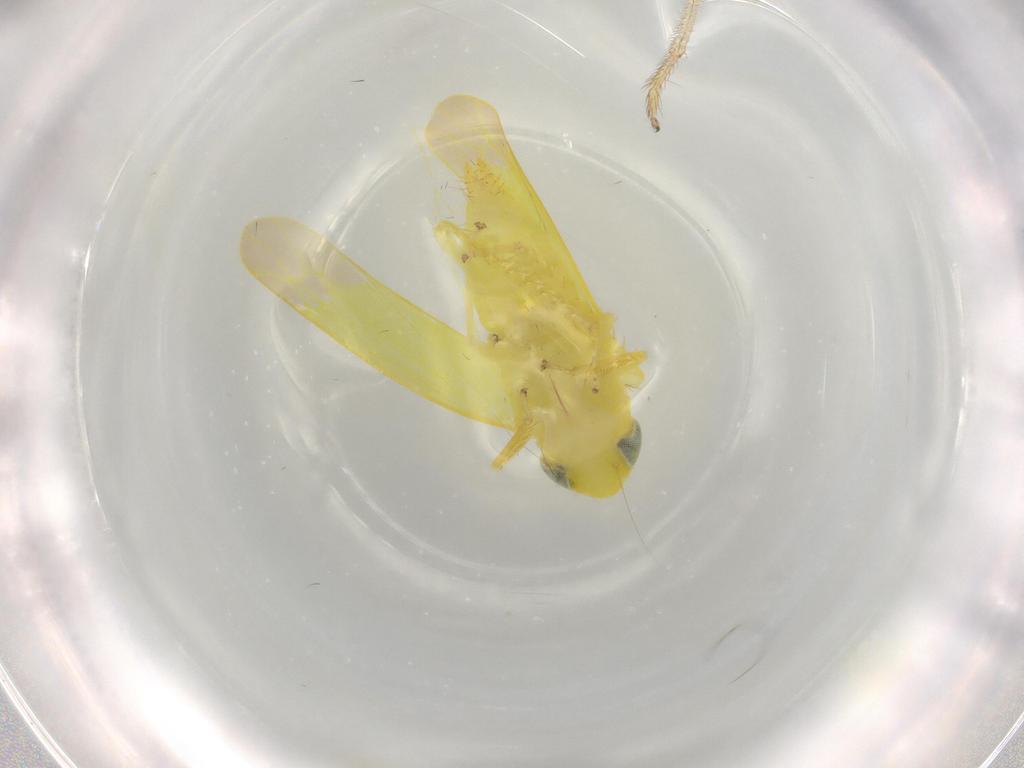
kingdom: Animalia
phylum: Arthropoda
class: Insecta
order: Hemiptera
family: Cicadellidae
